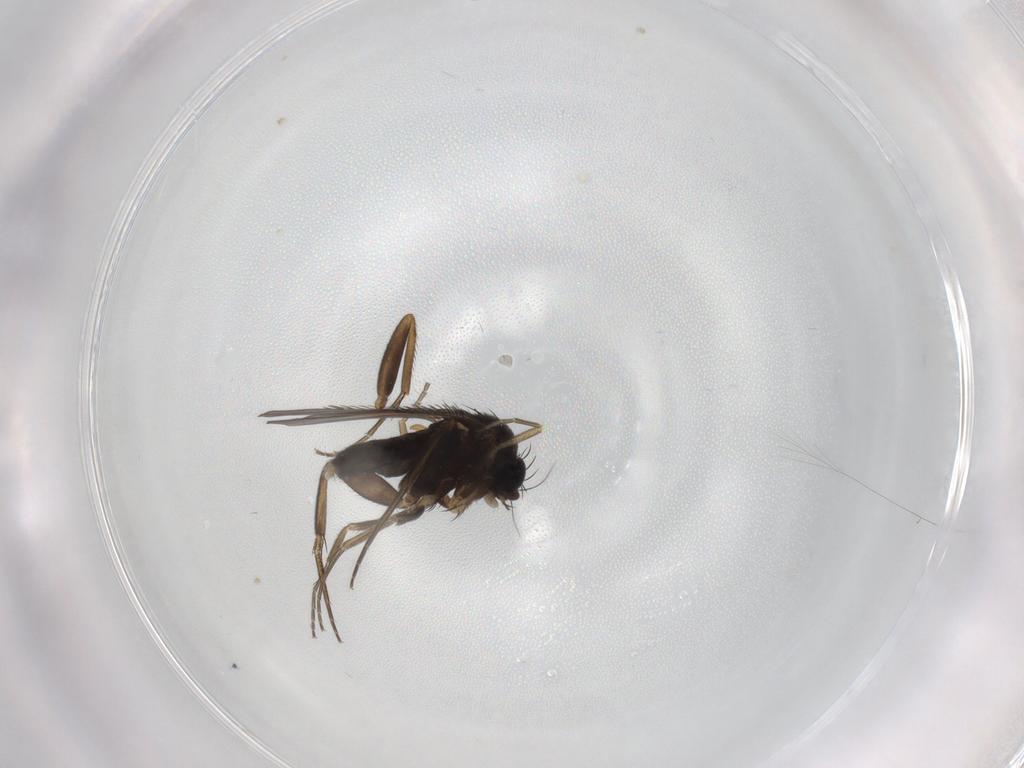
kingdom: Animalia
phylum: Arthropoda
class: Insecta
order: Diptera
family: Phoridae
